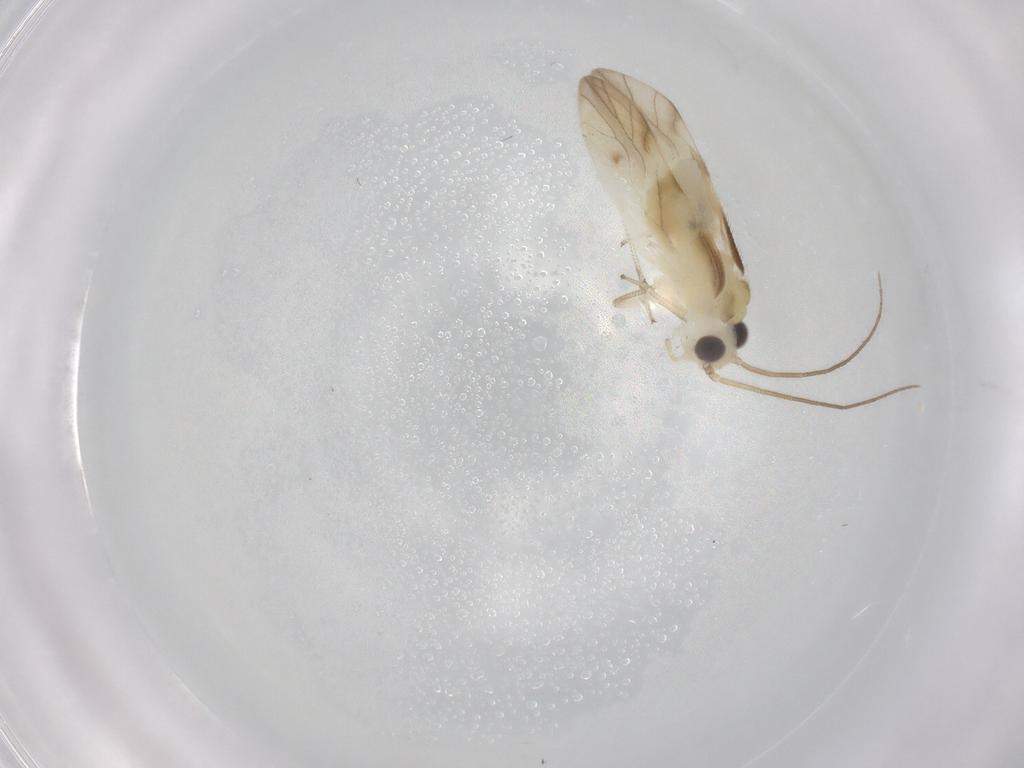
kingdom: Animalia
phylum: Arthropoda
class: Insecta
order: Psocodea
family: Caeciliusidae
